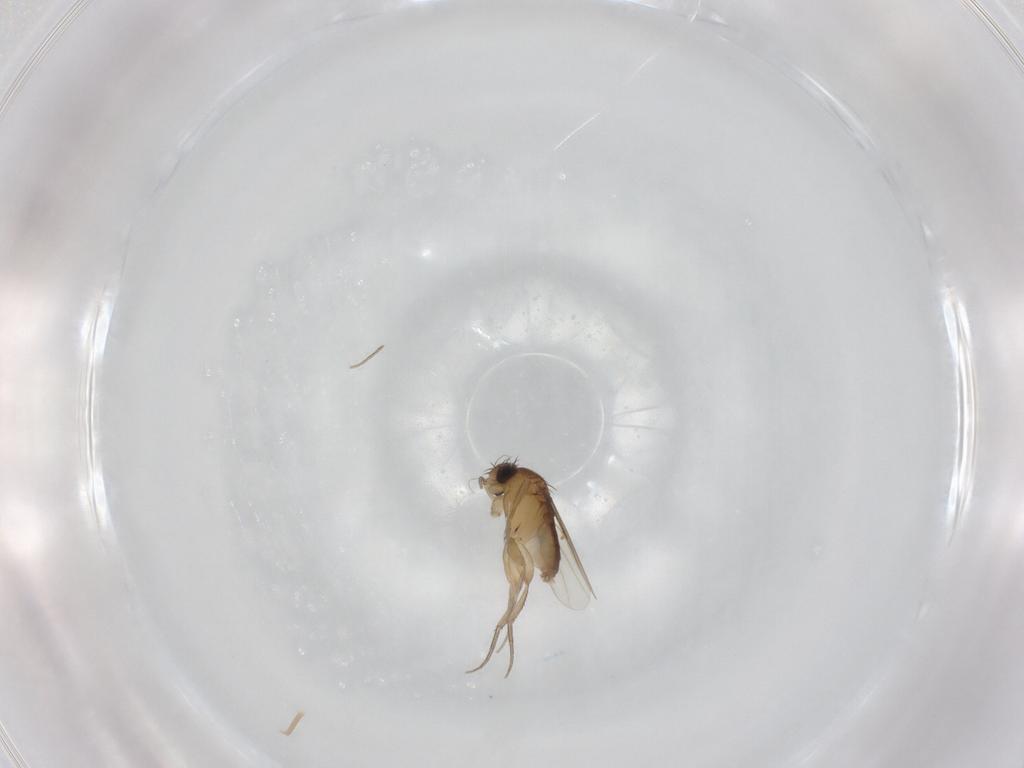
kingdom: Animalia
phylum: Arthropoda
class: Insecta
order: Diptera
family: Phoridae
